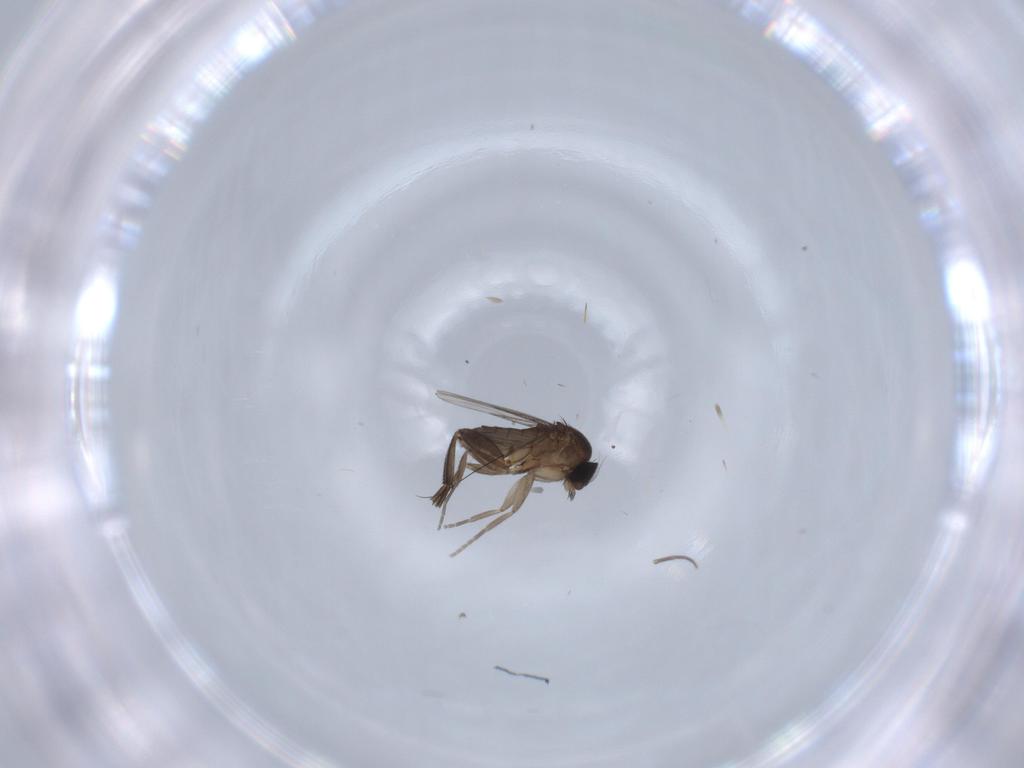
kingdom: Animalia
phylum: Arthropoda
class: Insecta
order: Diptera
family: Phoridae
